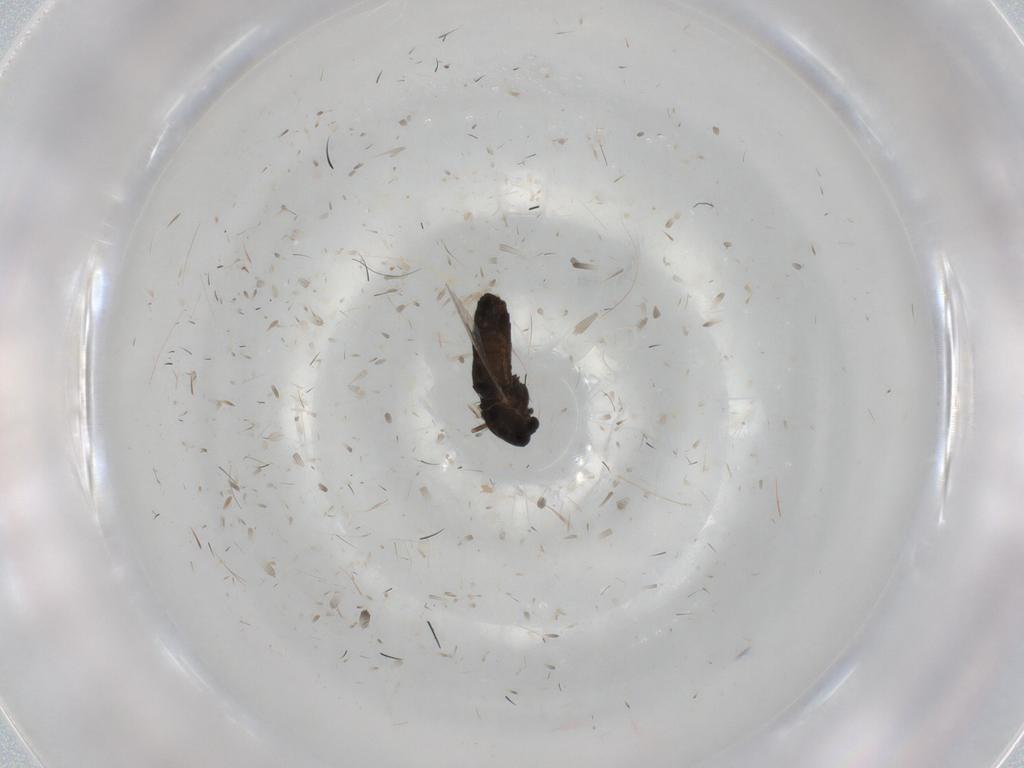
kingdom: Animalia
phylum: Arthropoda
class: Insecta
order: Diptera
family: Chironomidae
